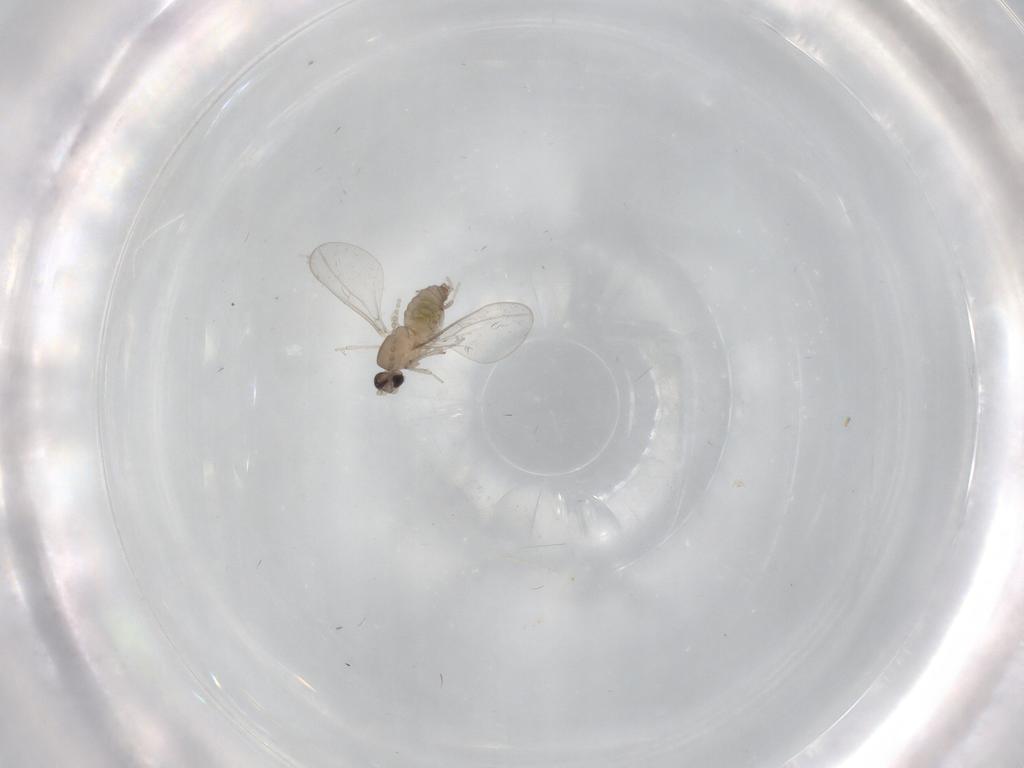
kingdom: Animalia
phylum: Arthropoda
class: Insecta
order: Diptera
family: Cecidomyiidae
